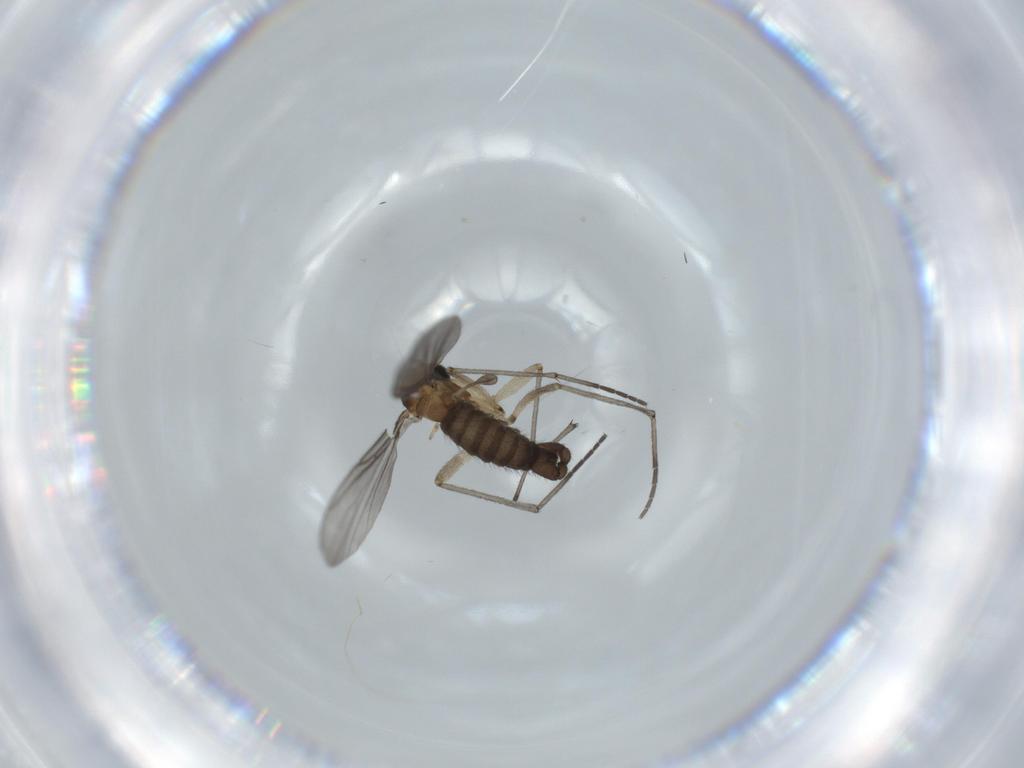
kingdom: Animalia
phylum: Arthropoda
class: Insecta
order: Diptera
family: Sciaridae
